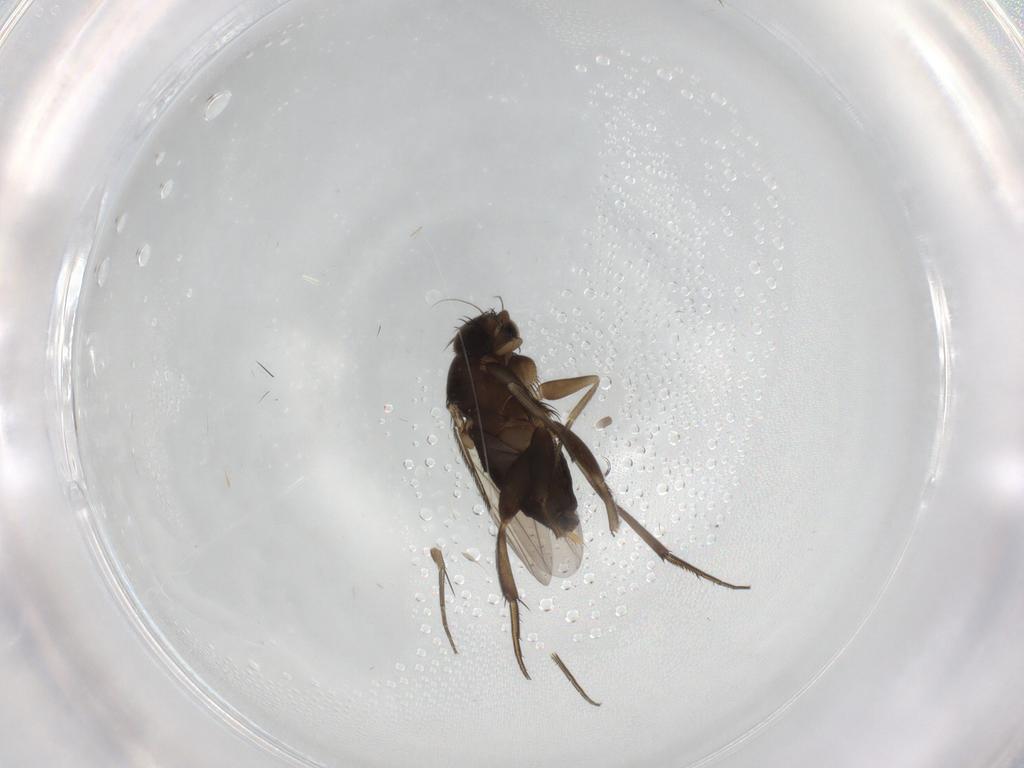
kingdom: Animalia
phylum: Arthropoda
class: Insecta
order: Diptera
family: Phoridae
